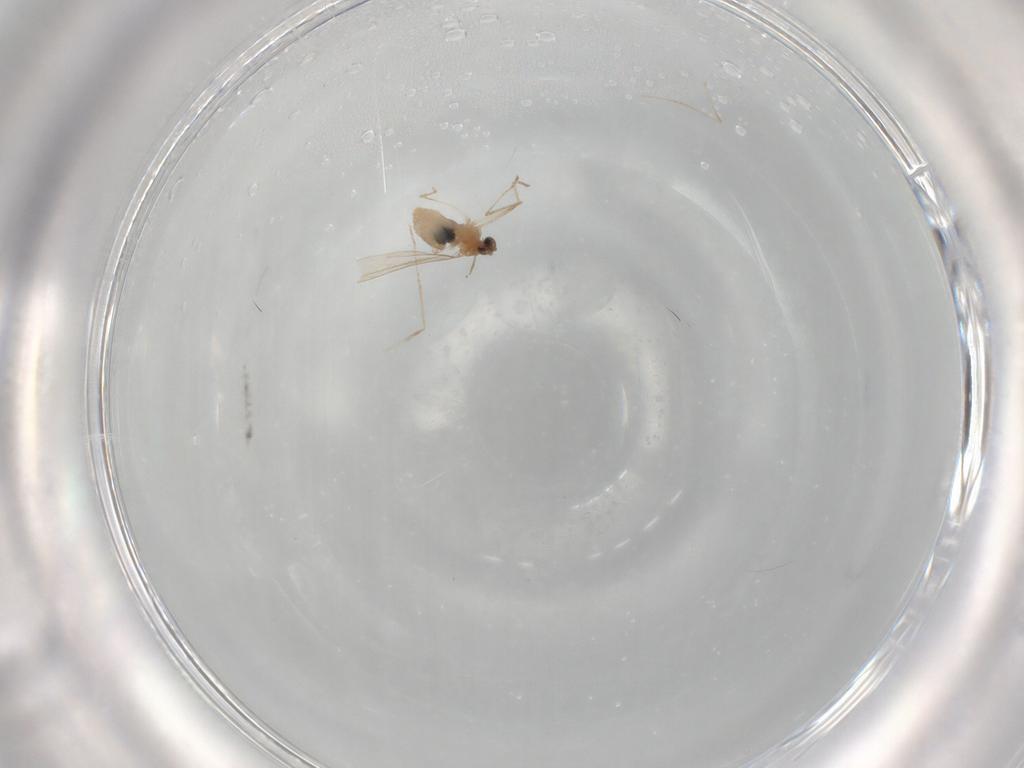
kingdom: Animalia
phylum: Arthropoda
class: Insecta
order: Diptera
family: Cecidomyiidae
